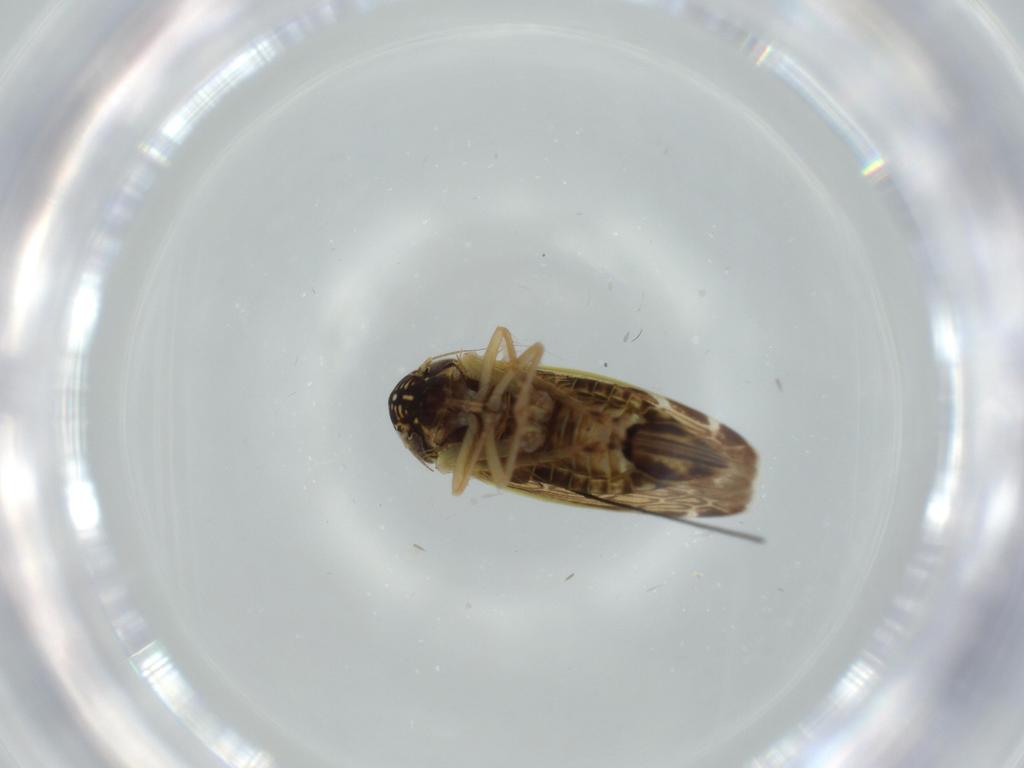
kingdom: Animalia
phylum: Arthropoda
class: Insecta
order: Hemiptera
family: Cicadellidae
